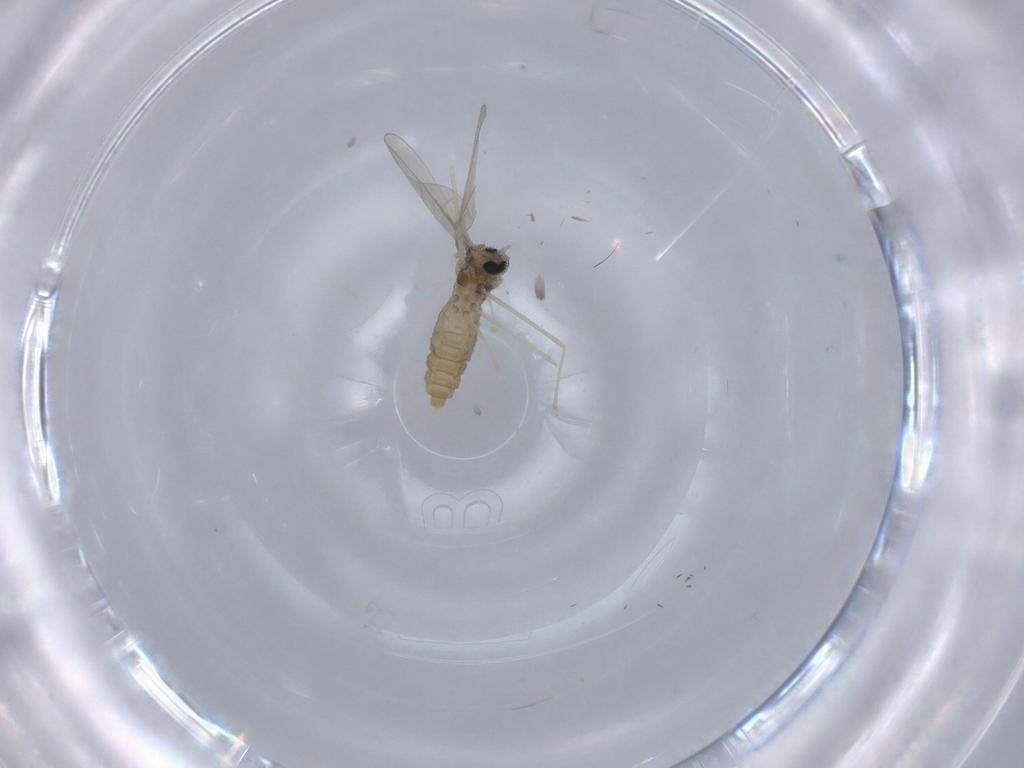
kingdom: Animalia
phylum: Arthropoda
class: Insecta
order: Diptera
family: Cecidomyiidae
